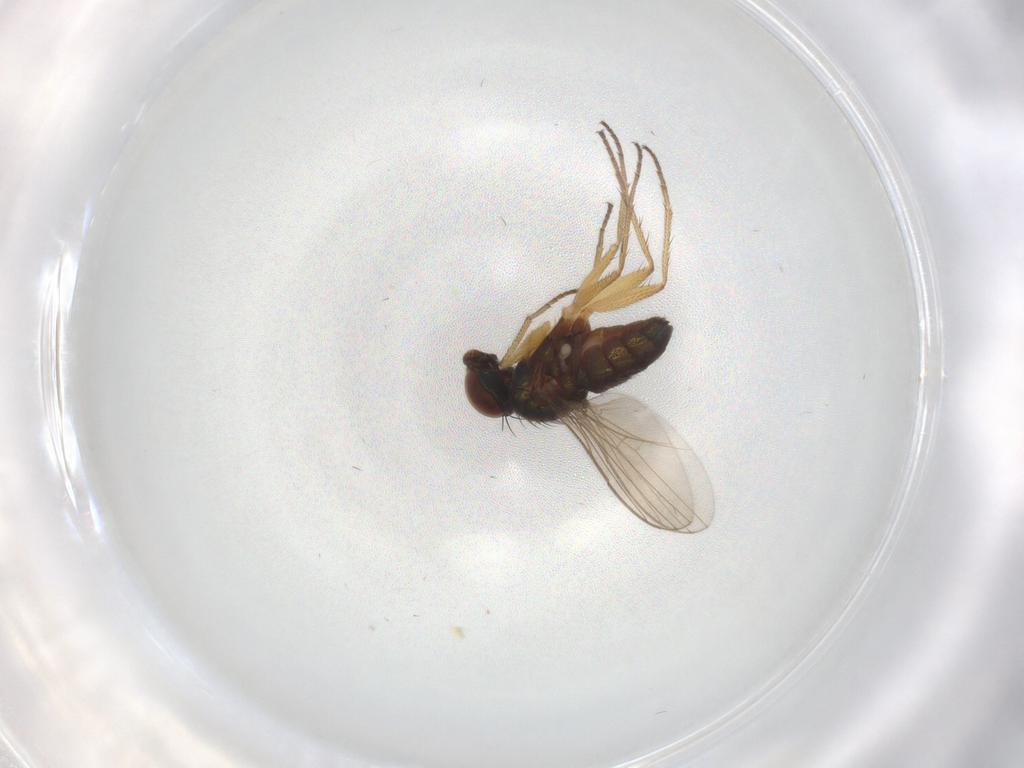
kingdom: Animalia
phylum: Arthropoda
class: Insecta
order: Diptera
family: Dolichopodidae
